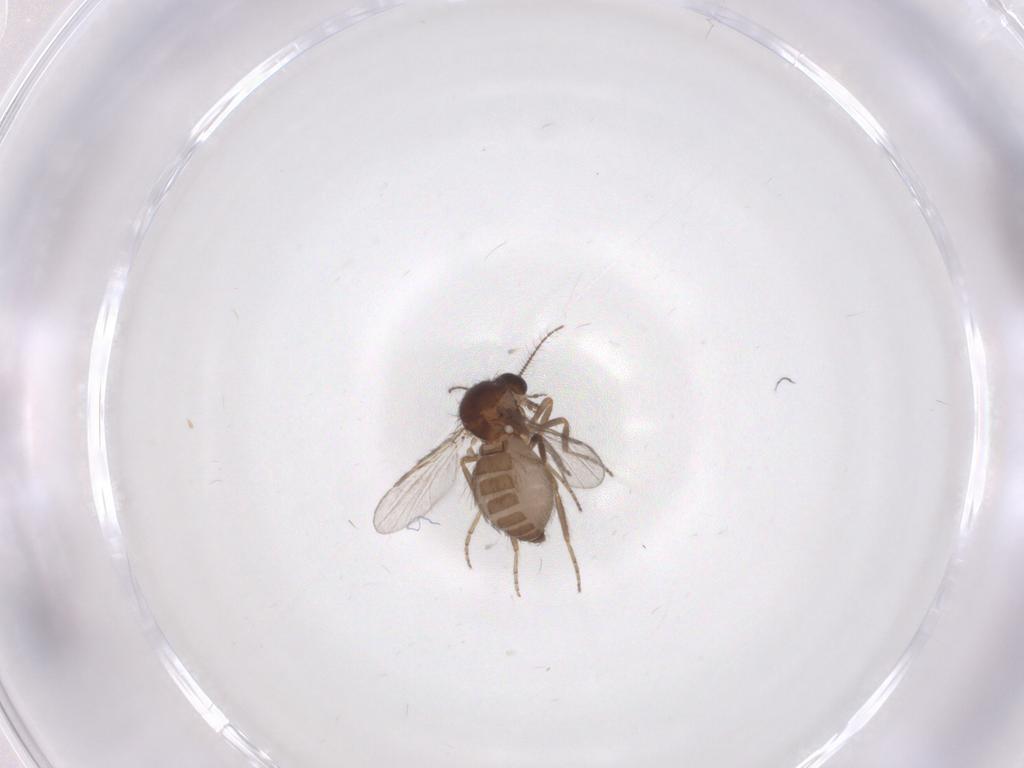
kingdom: Animalia
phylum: Arthropoda
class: Insecta
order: Diptera
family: Ceratopogonidae
